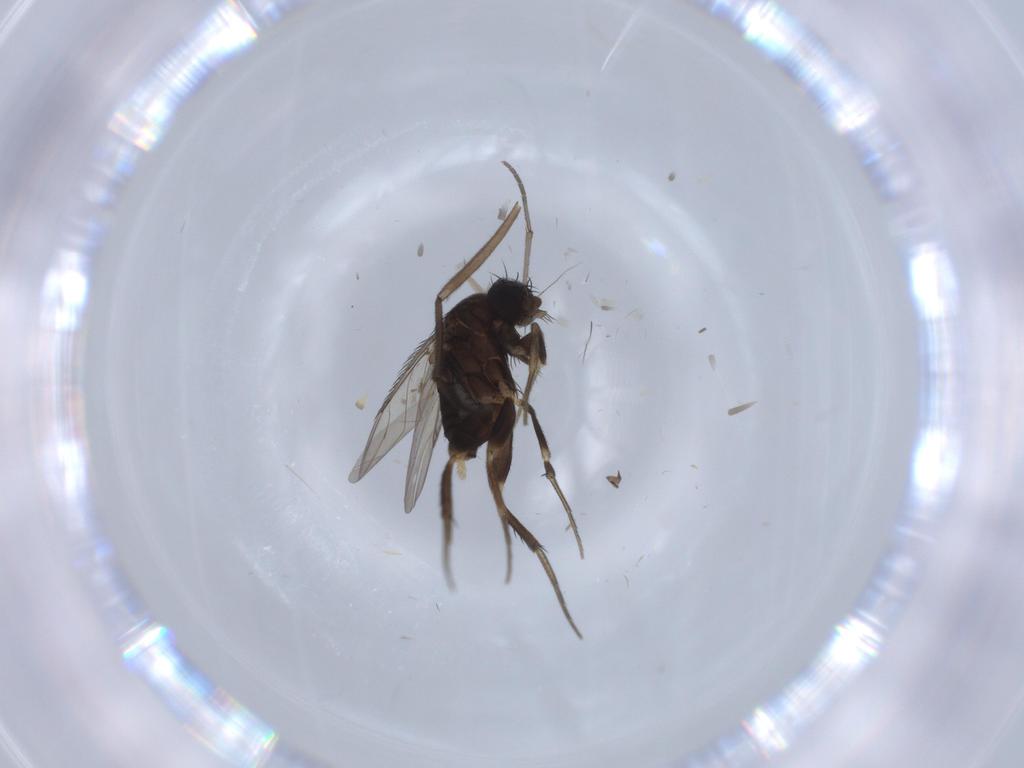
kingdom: Animalia
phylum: Arthropoda
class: Insecta
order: Diptera
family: Phoridae
